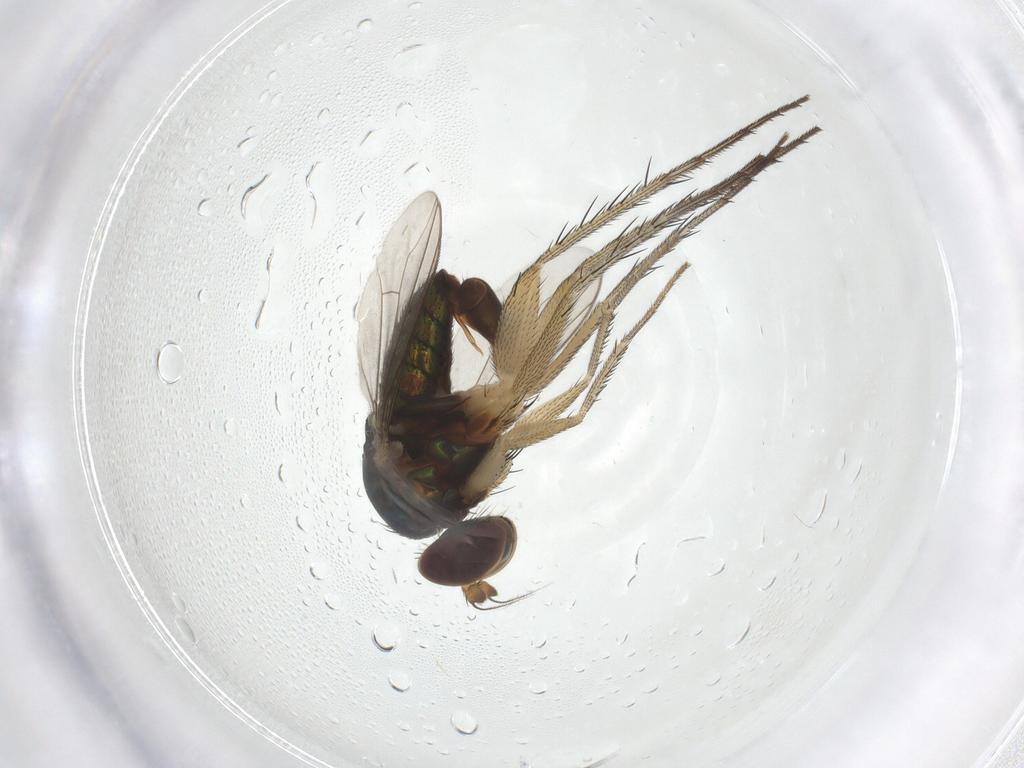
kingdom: Animalia
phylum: Arthropoda
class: Insecta
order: Diptera
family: Dolichopodidae
